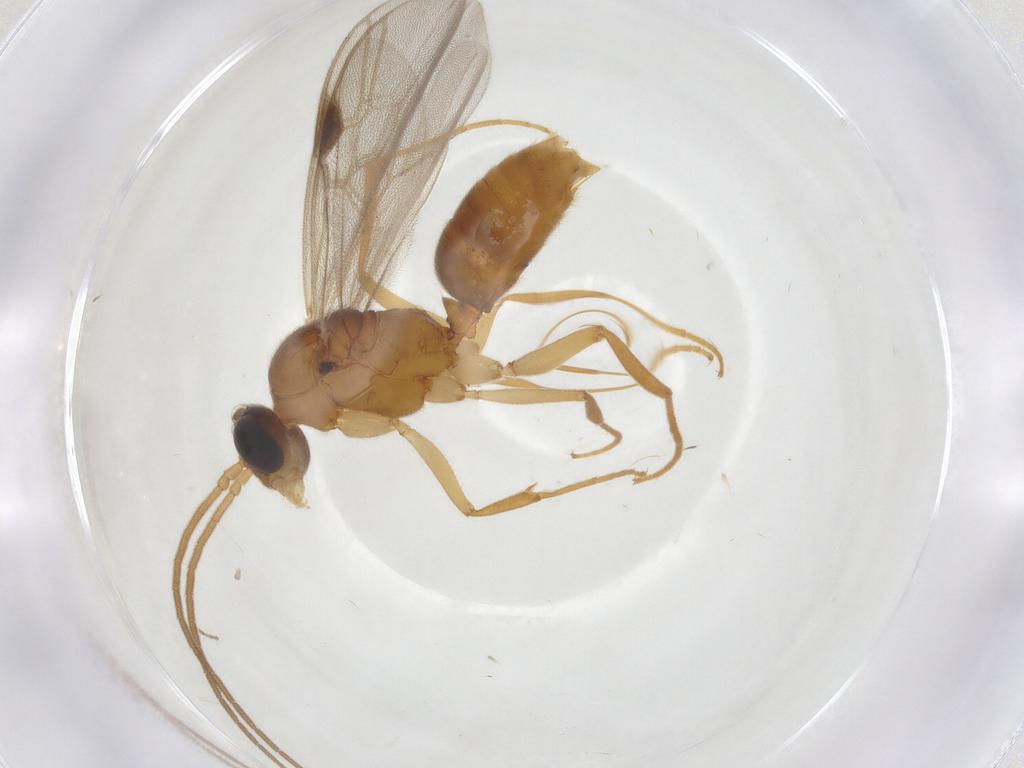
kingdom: Animalia
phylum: Arthropoda
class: Insecta
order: Hymenoptera
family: Formicidae
